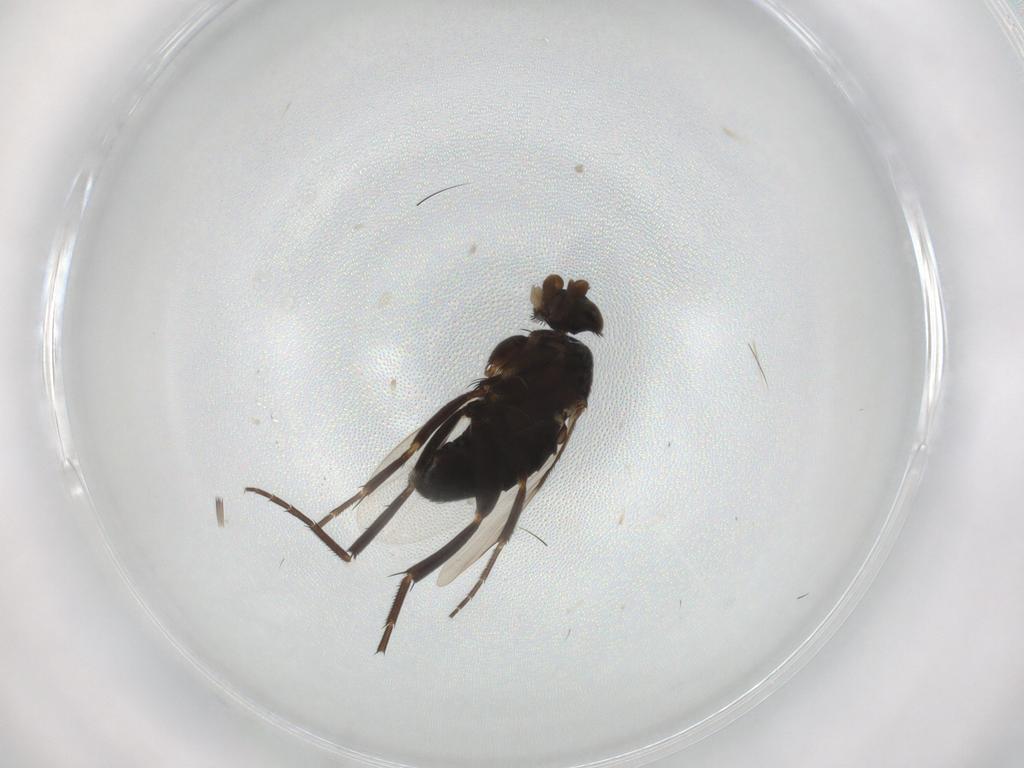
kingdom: Animalia
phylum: Arthropoda
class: Insecta
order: Diptera
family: Phoridae
